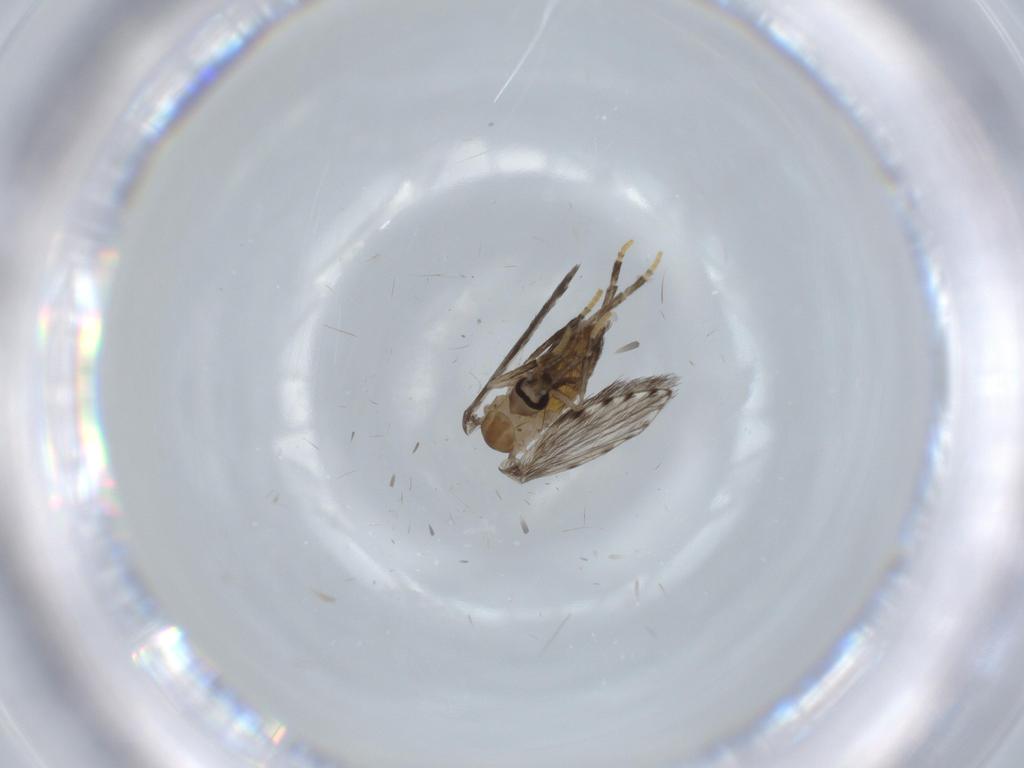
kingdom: Animalia
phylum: Arthropoda
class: Insecta
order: Diptera
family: Psychodidae
